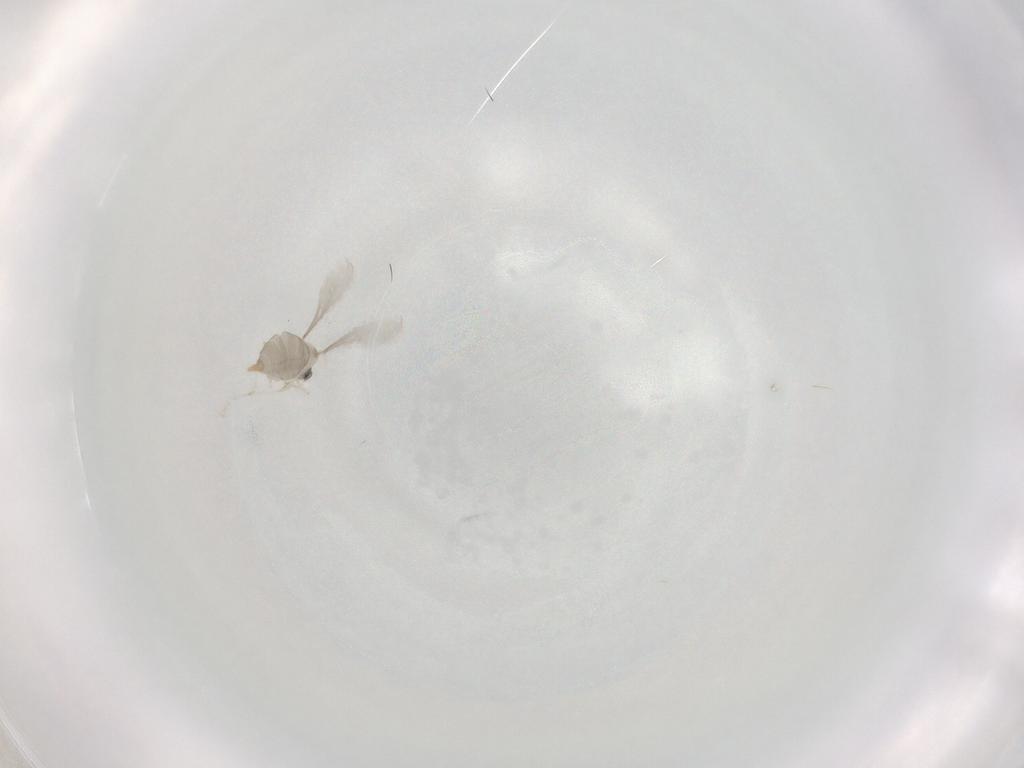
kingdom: Animalia
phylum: Arthropoda
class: Insecta
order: Diptera
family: Cecidomyiidae
